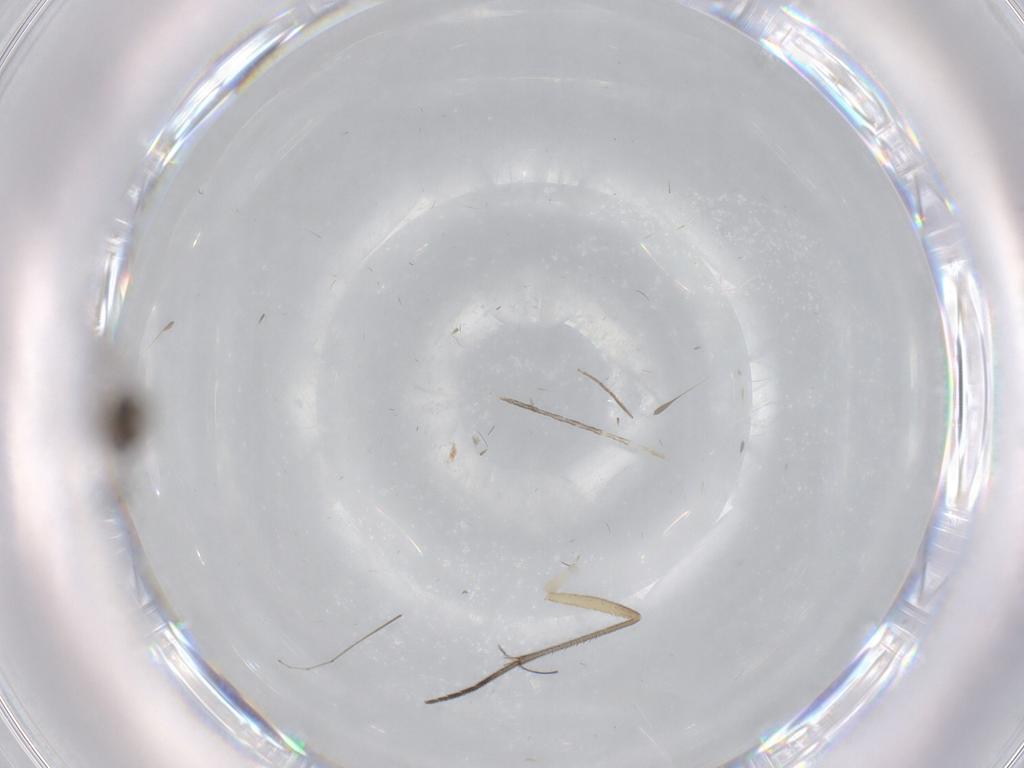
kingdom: Animalia
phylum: Arthropoda
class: Insecta
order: Diptera
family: Sciaridae
